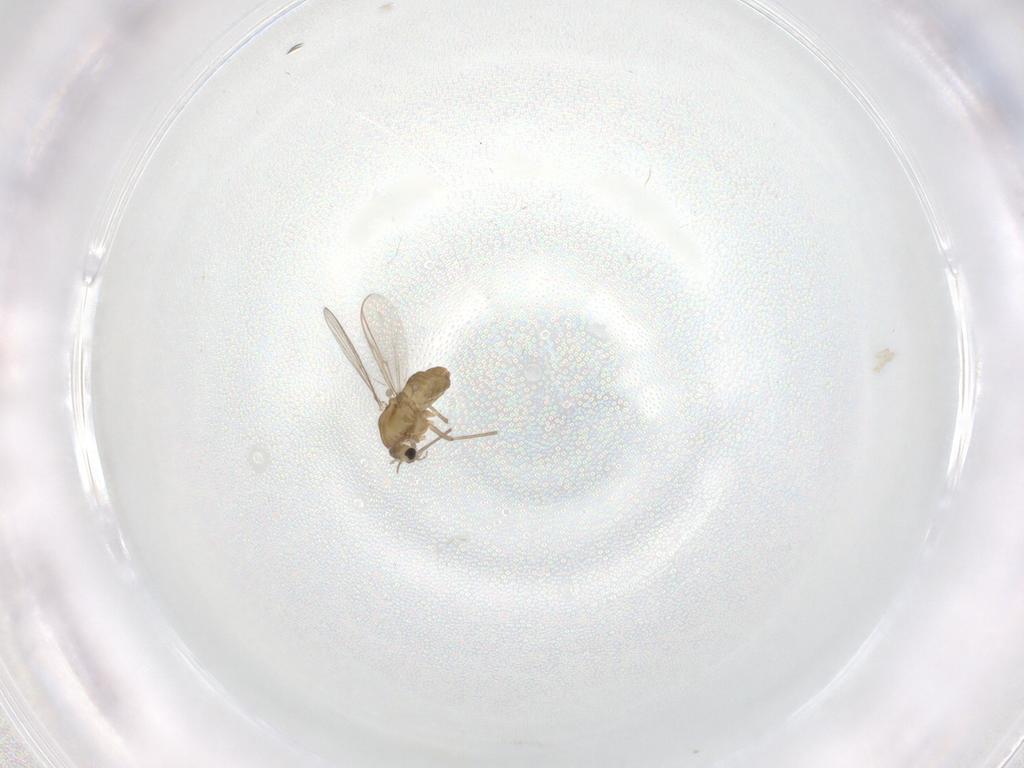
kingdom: Animalia
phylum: Arthropoda
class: Insecta
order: Diptera
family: Chironomidae
